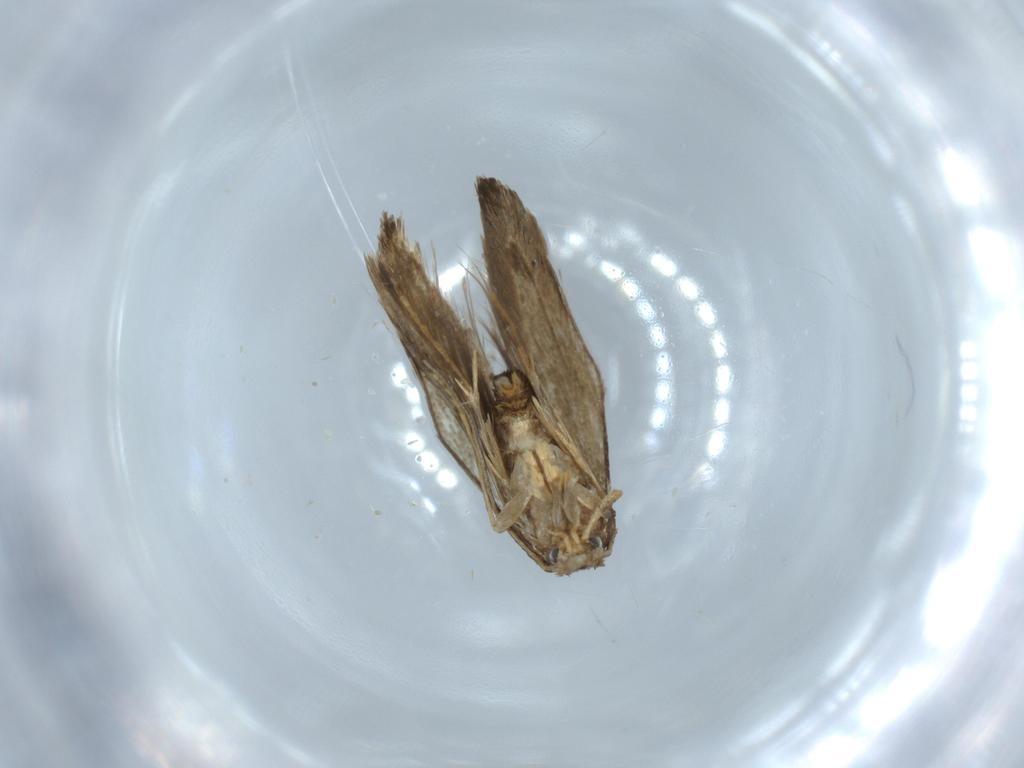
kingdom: Animalia
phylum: Arthropoda
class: Insecta
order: Lepidoptera
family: Tineidae
